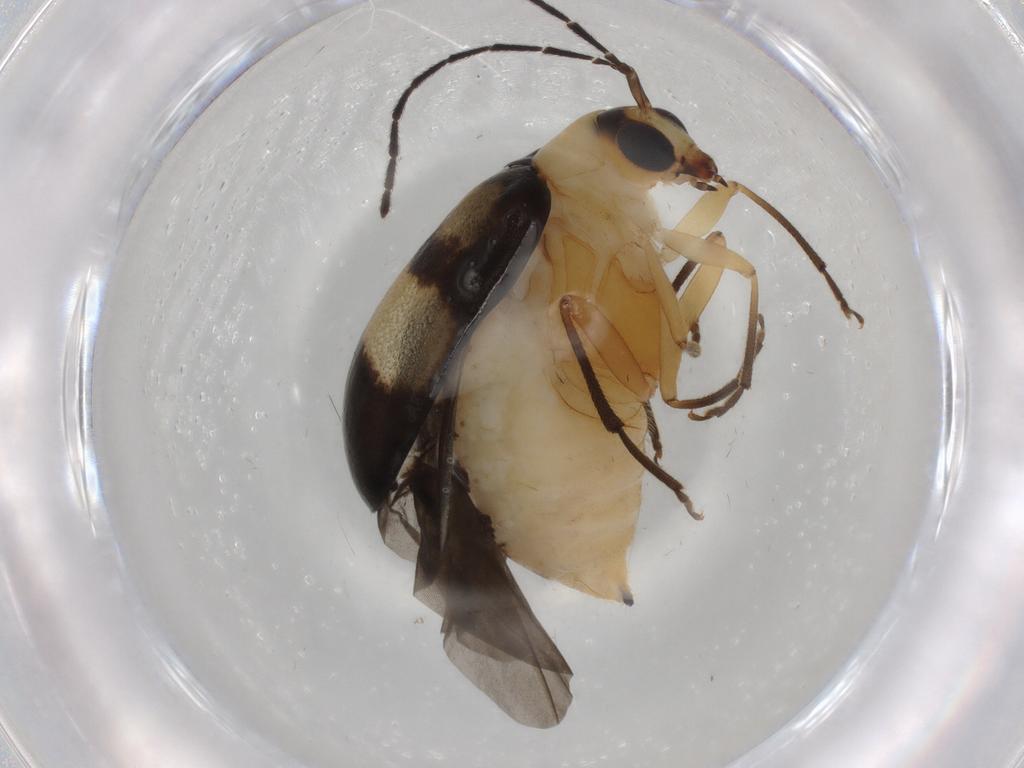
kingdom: Animalia
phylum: Arthropoda
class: Insecta
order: Coleoptera
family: Chrysomelidae
